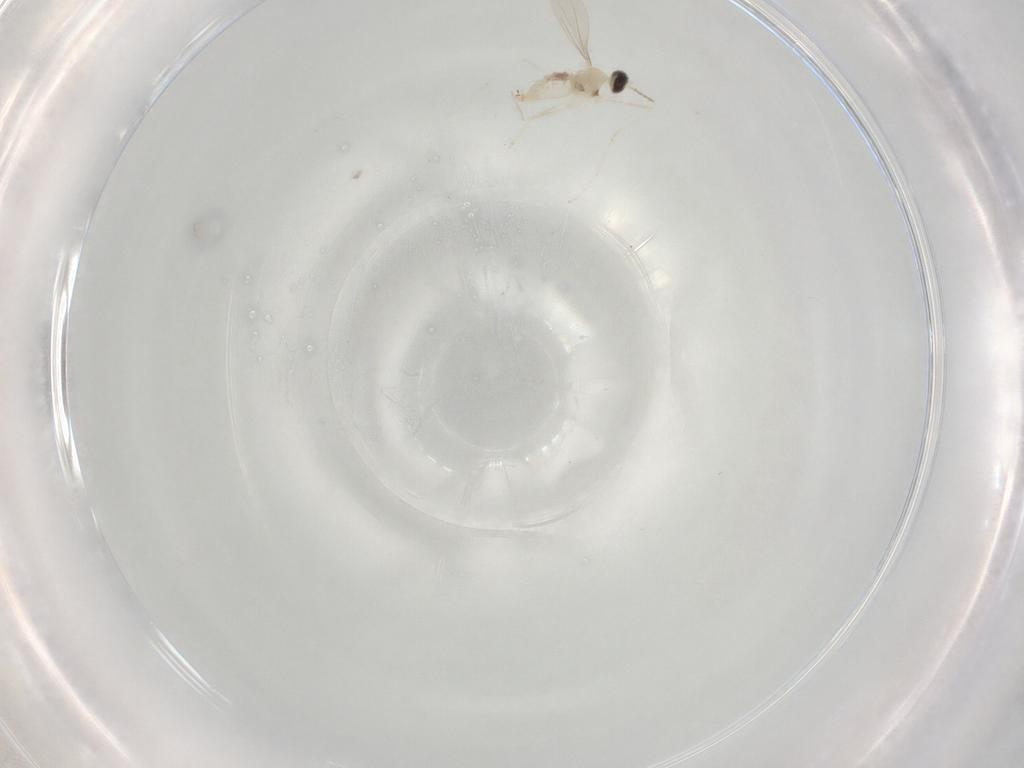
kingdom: Animalia
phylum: Arthropoda
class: Insecta
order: Diptera
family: Cecidomyiidae
